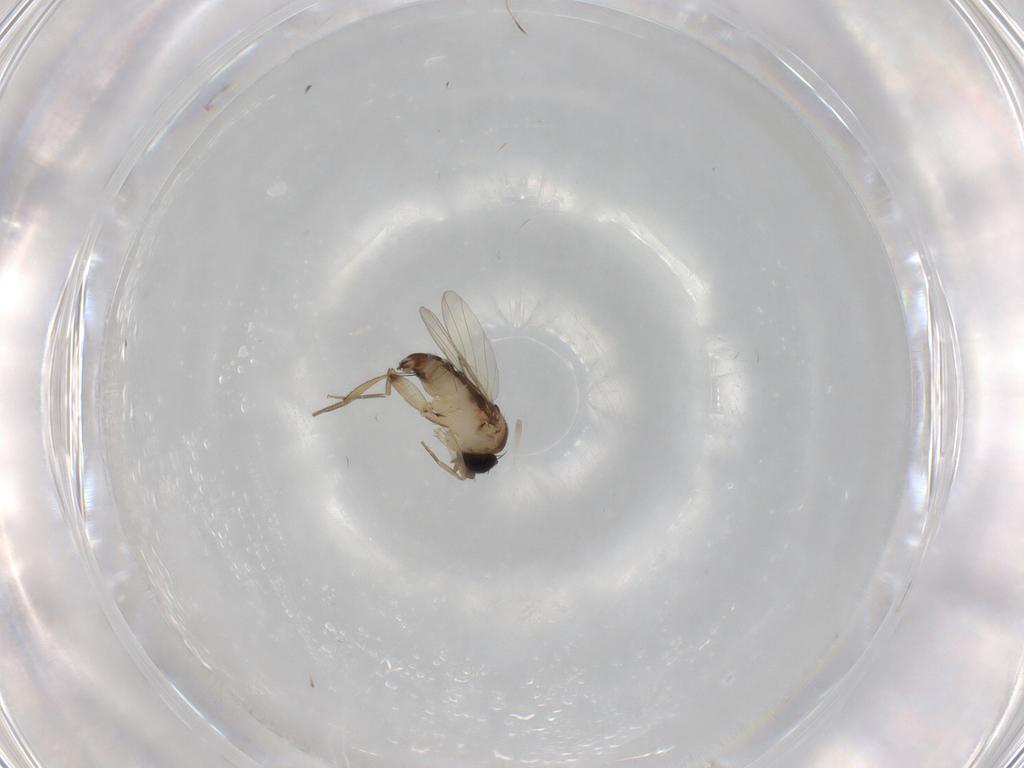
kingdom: Animalia
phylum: Arthropoda
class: Insecta
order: Diptera
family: Phoridae
